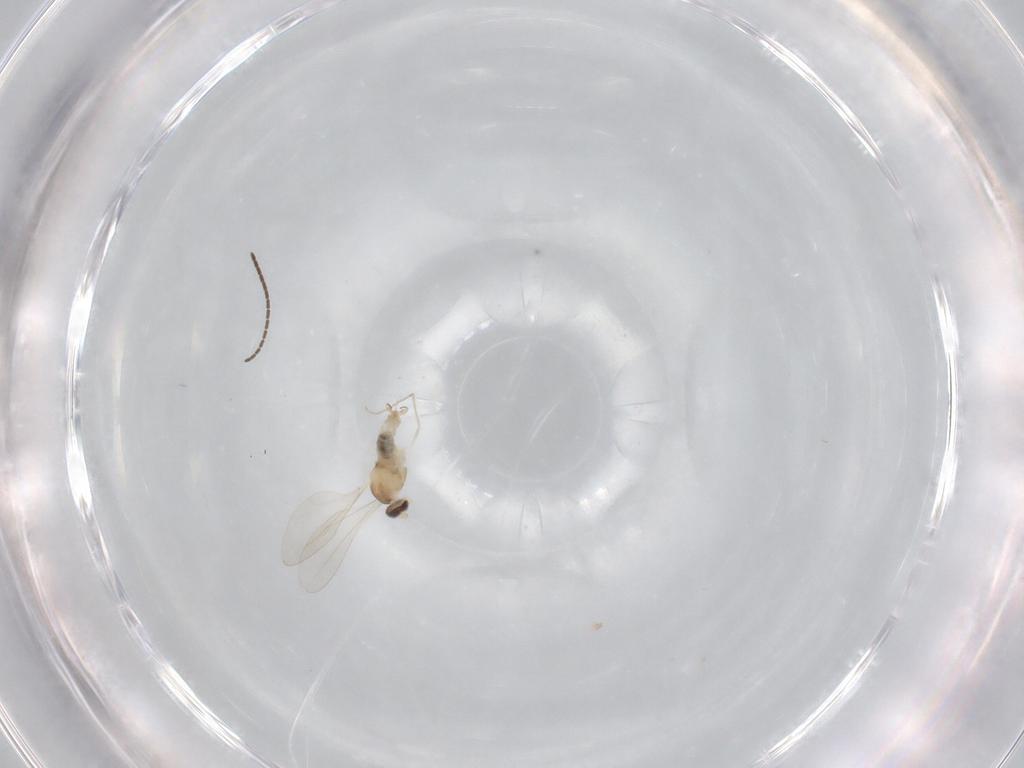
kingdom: Animalia
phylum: Arthropoda
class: Insecta
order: Diptera
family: Sciaridae
